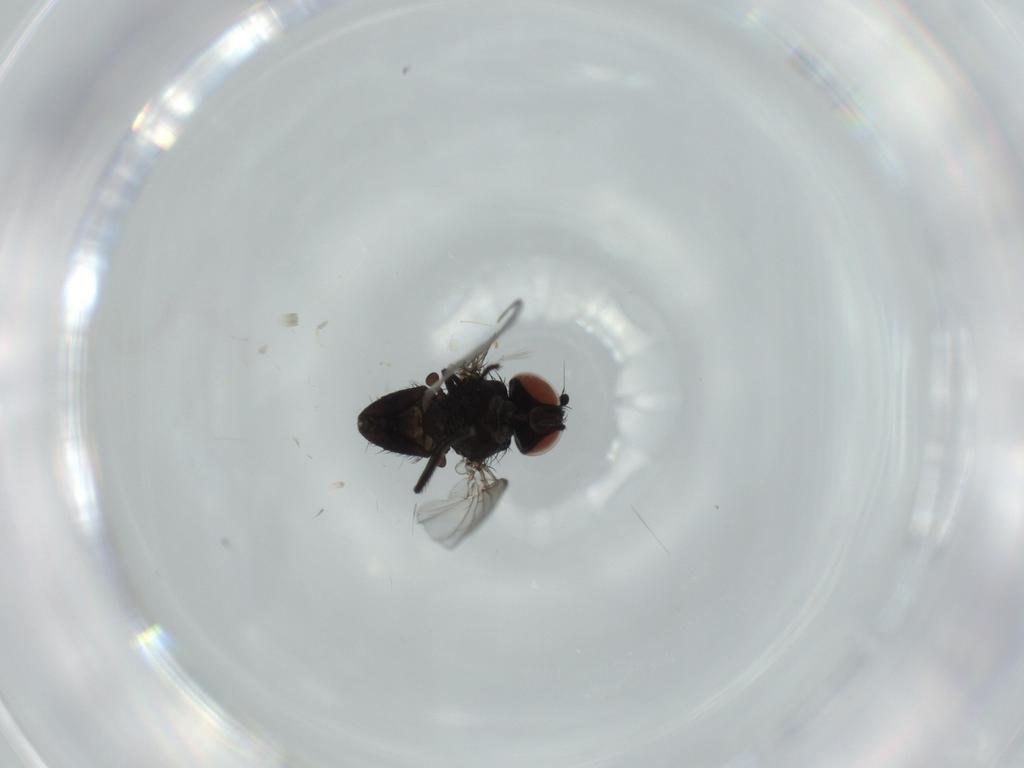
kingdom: Animalia
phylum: Arthropoda
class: Insecta
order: Diptera
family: Milichiidae
